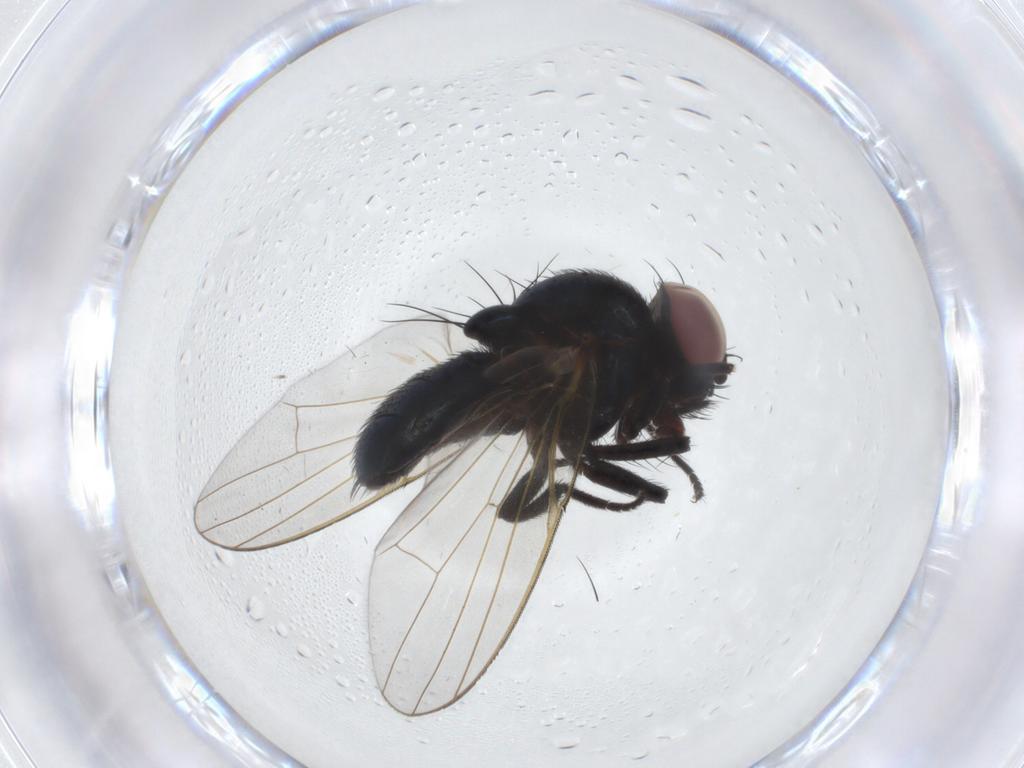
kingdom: Animalia
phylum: Arthropoda
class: Insecta
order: Diptera
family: Lonchaeidae
